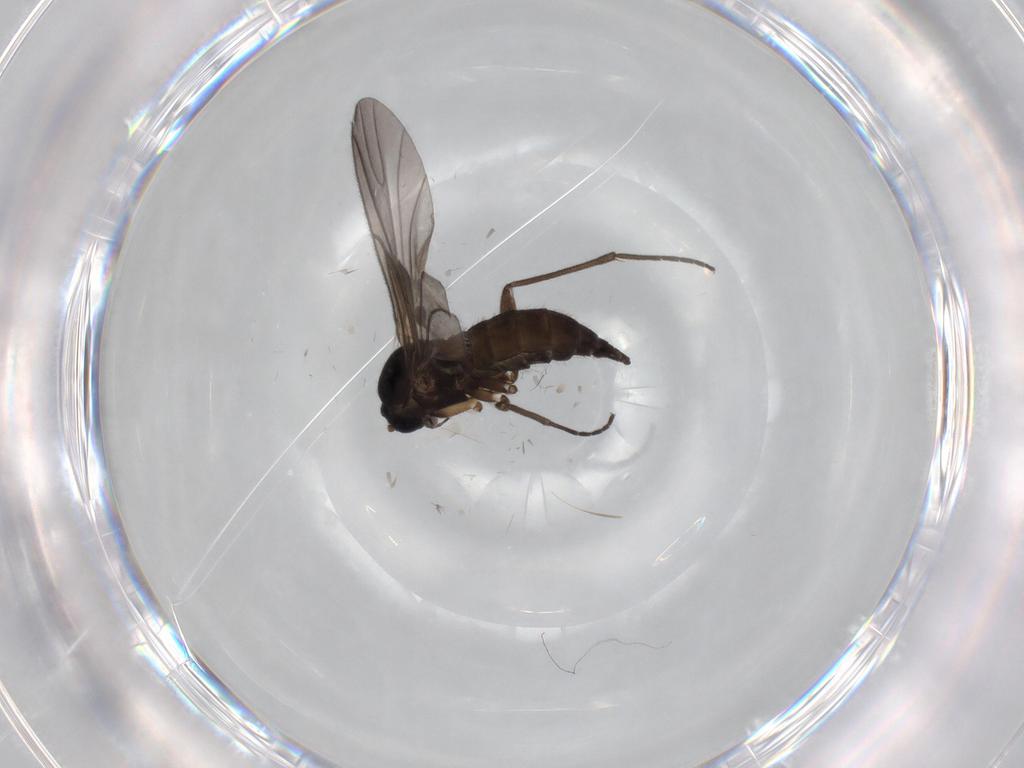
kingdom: Animalia
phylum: Arthropoda
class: Insecta
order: Diptera
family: Sciaridae
